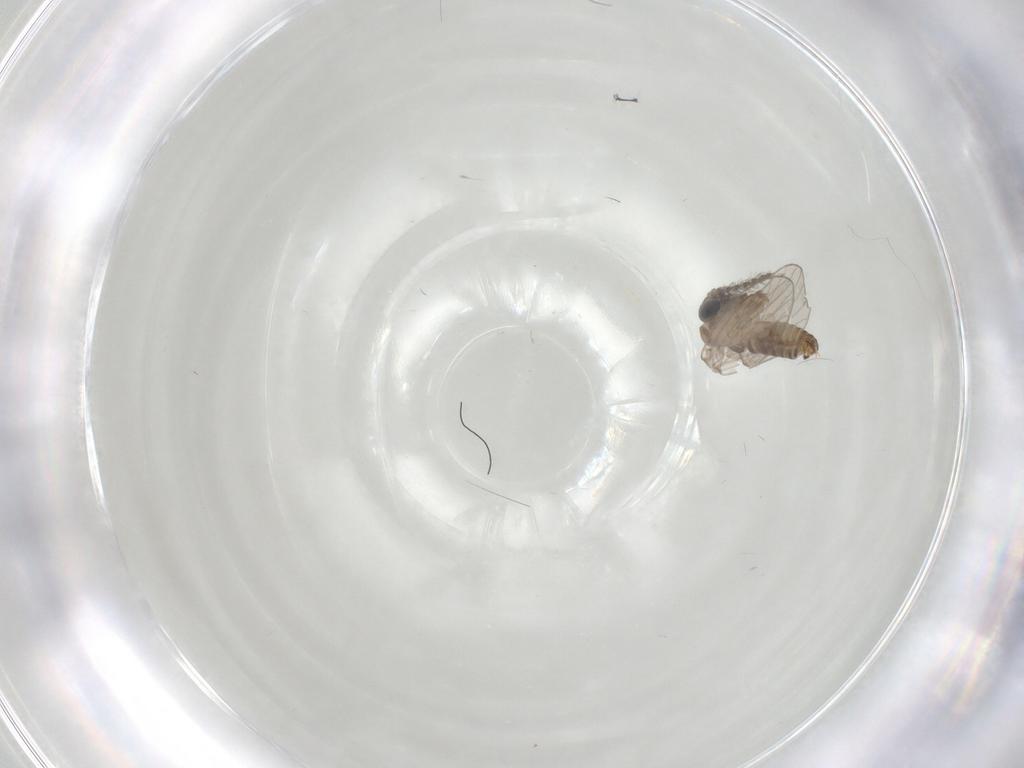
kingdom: Animalia
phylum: Arthropoda
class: Insecta
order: Diptera
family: Psychodidae
